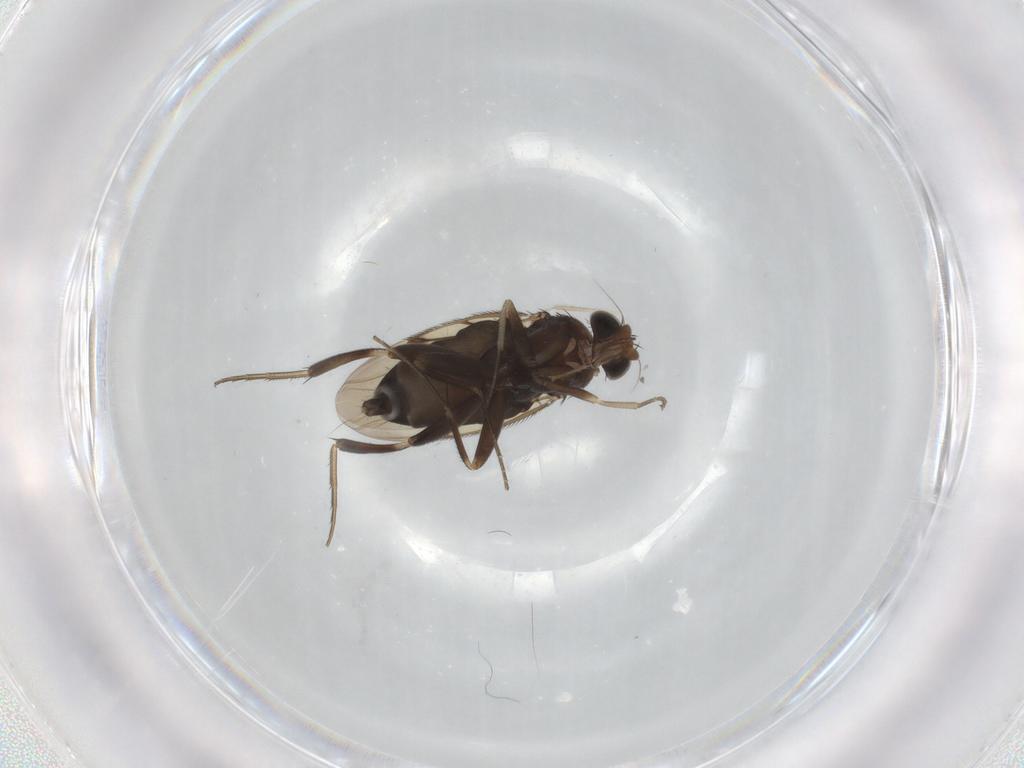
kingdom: Animalia
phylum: Arthropoda
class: Insecta
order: Diptera
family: Phoridae
